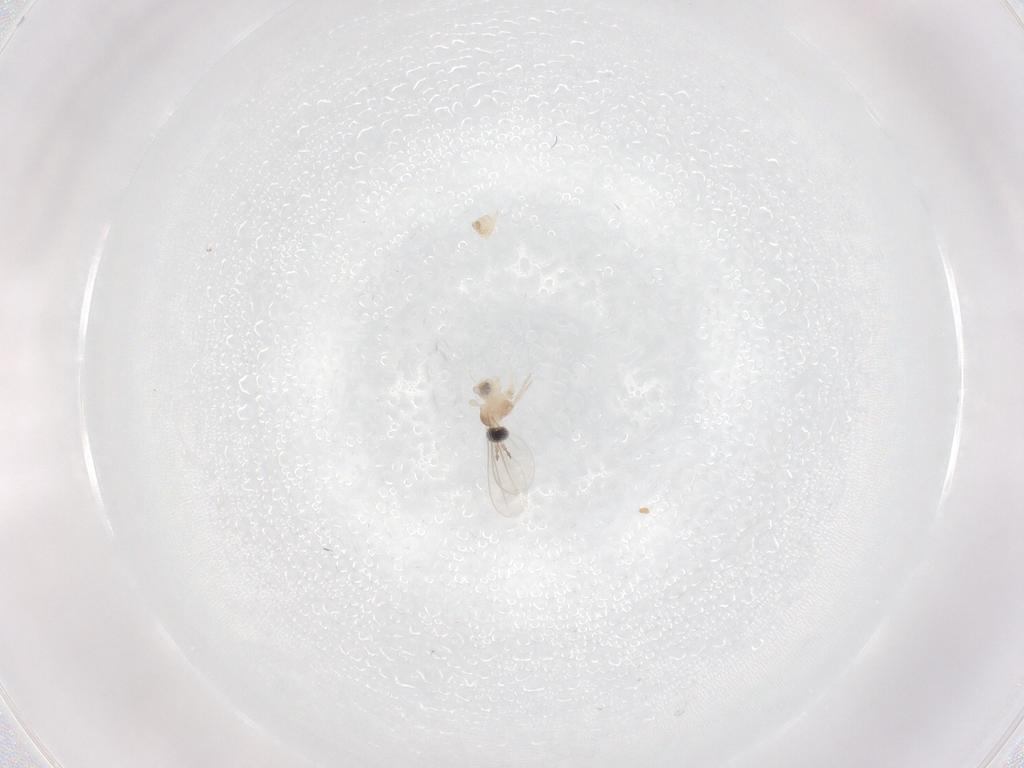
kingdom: Animalia
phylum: Arthropoda
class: Insecta
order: Diptera
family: Cecidomyiidae
